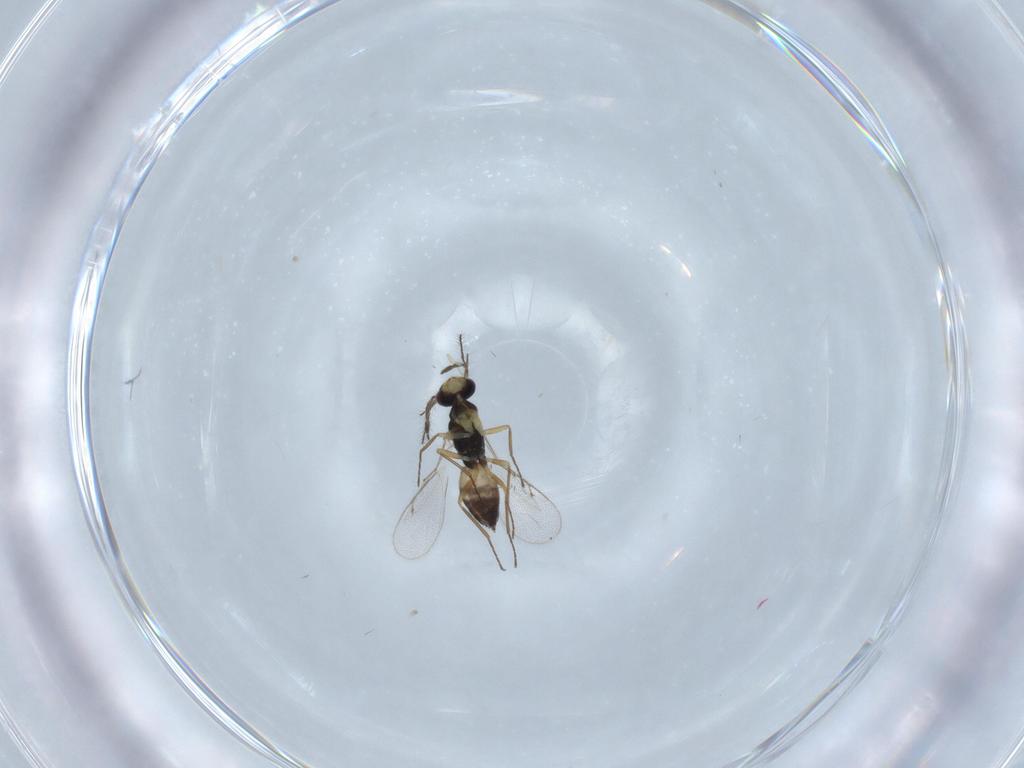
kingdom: Animalia
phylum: Arthropoda
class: Insecta
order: Hymenoptera
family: Eulophidae
